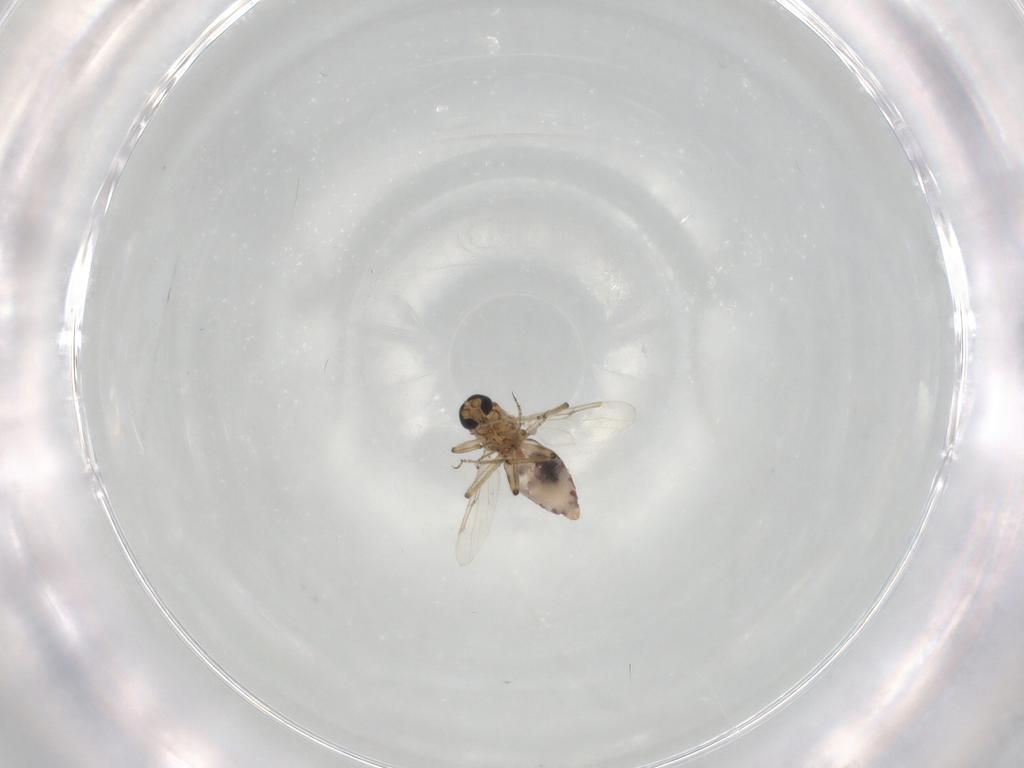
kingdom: Animalia
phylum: Arthropoda
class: Insecta
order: Diptera
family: Ceratopogonidae
